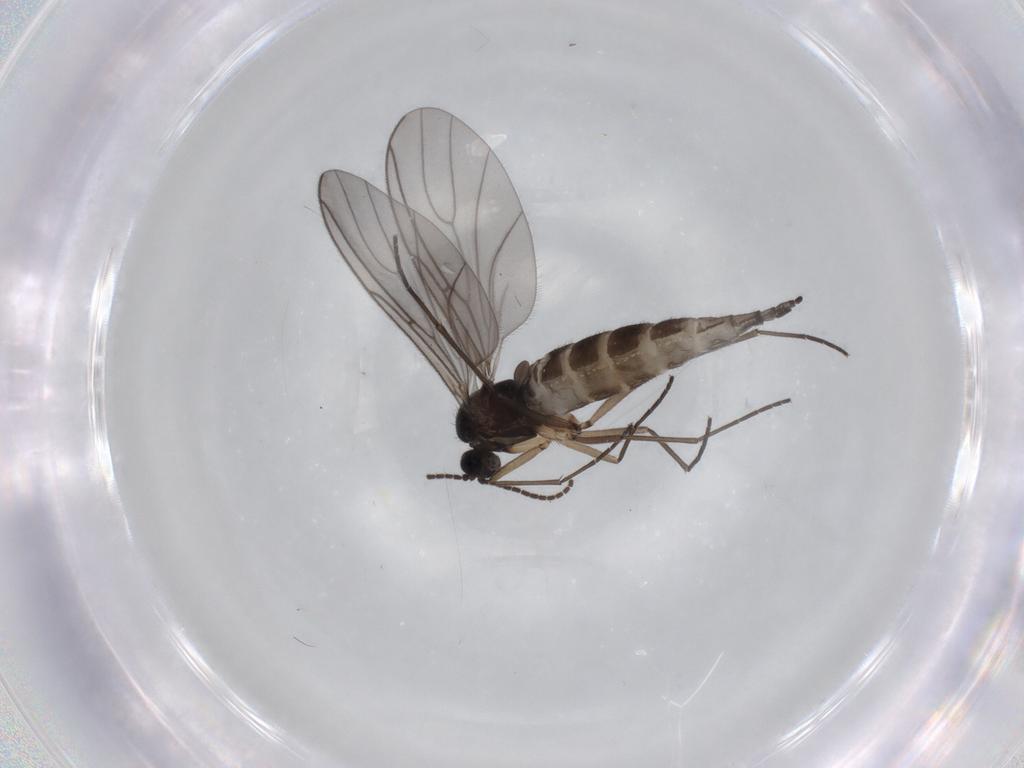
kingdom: Animalia
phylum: Arthropoda
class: Insecta
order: Diptera
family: Sciaridae
